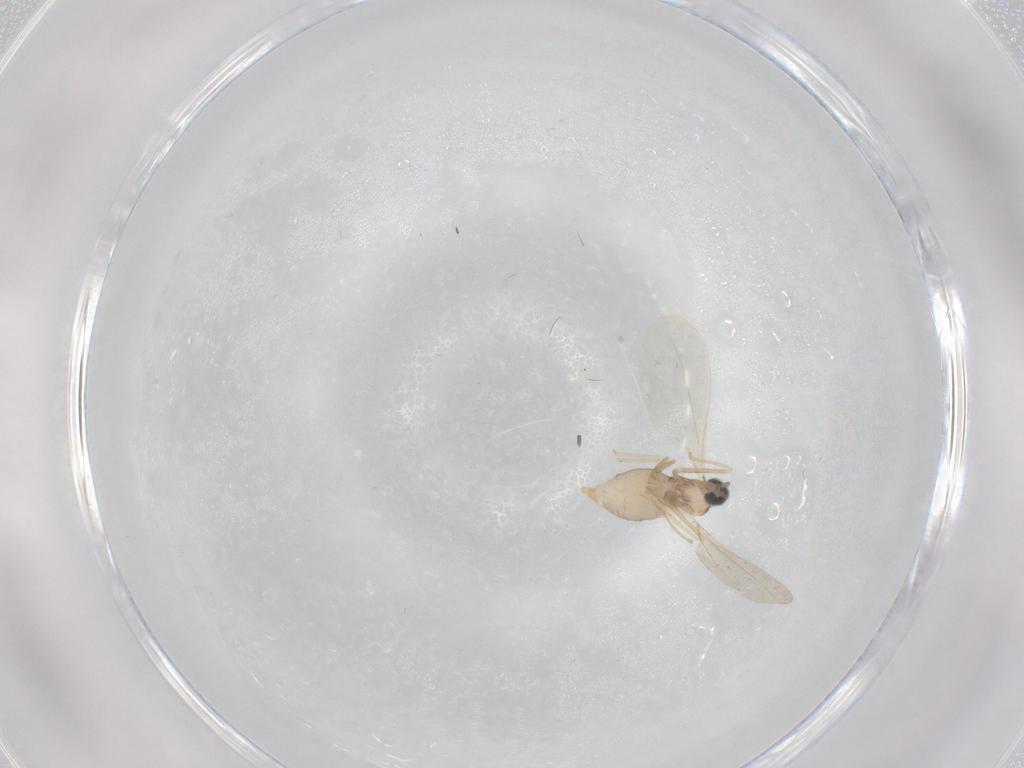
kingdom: Animalia
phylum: Arthropoda
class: Insecta
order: Diptera
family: Cecidomyiidae
